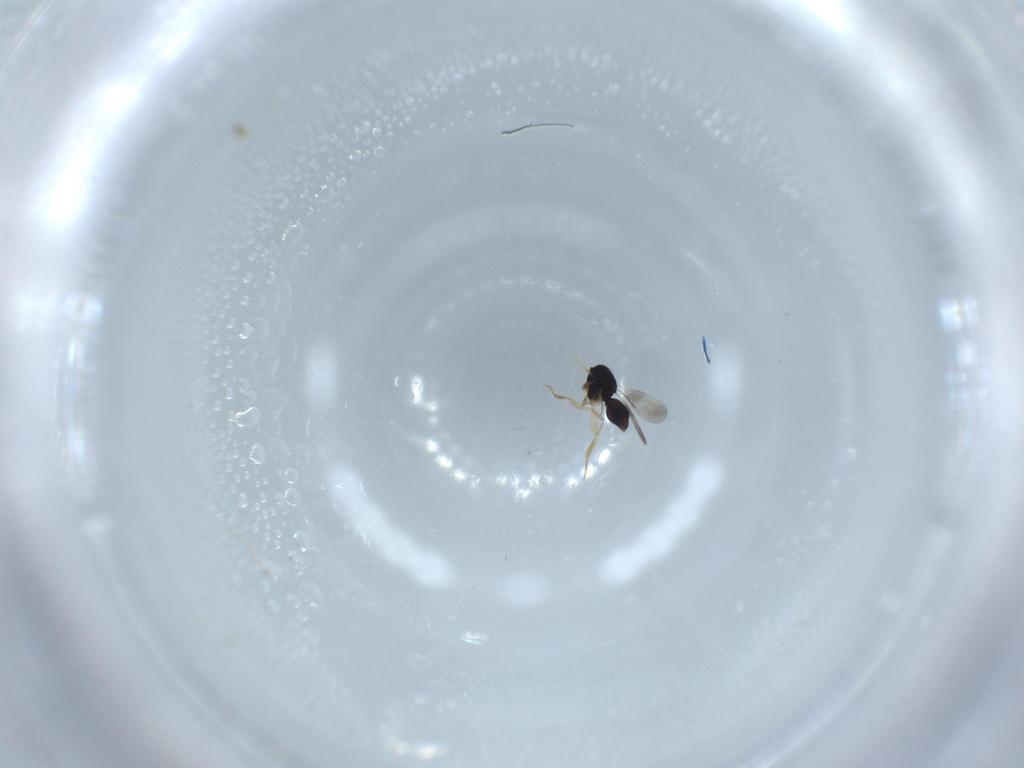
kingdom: Animalia
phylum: Arthropoda
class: Insecta
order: Hymenoptera
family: Ceraphronidae
